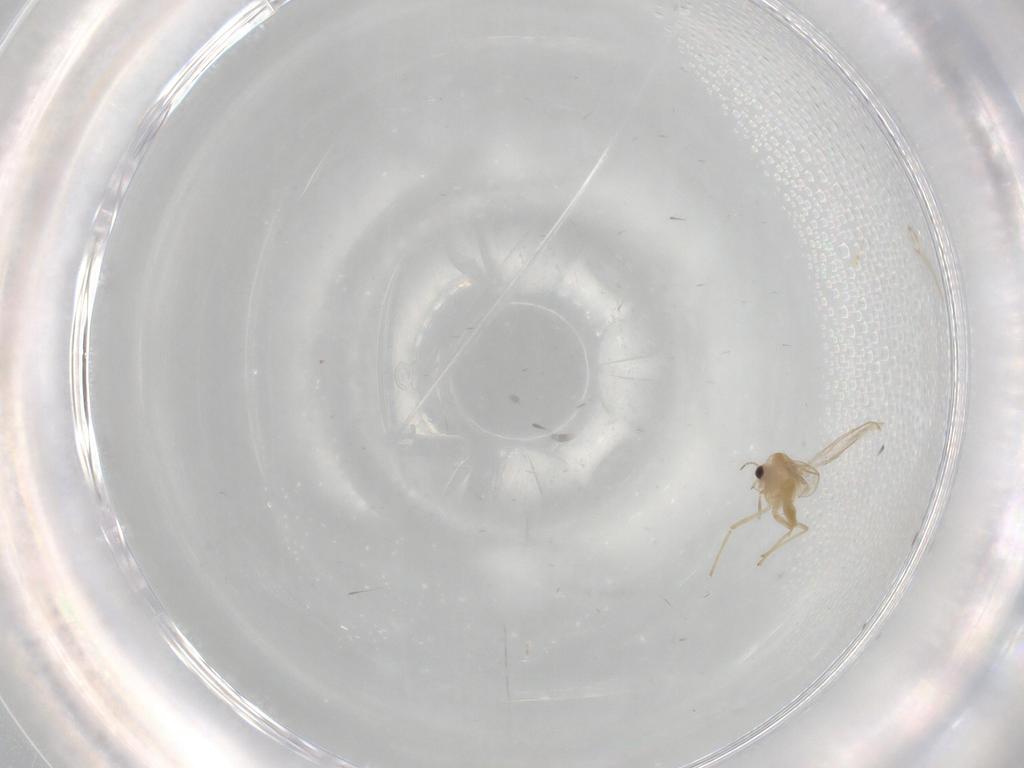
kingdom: Animalia
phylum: Arthropoda
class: Insecta
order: Diptera
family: Chironomidae
